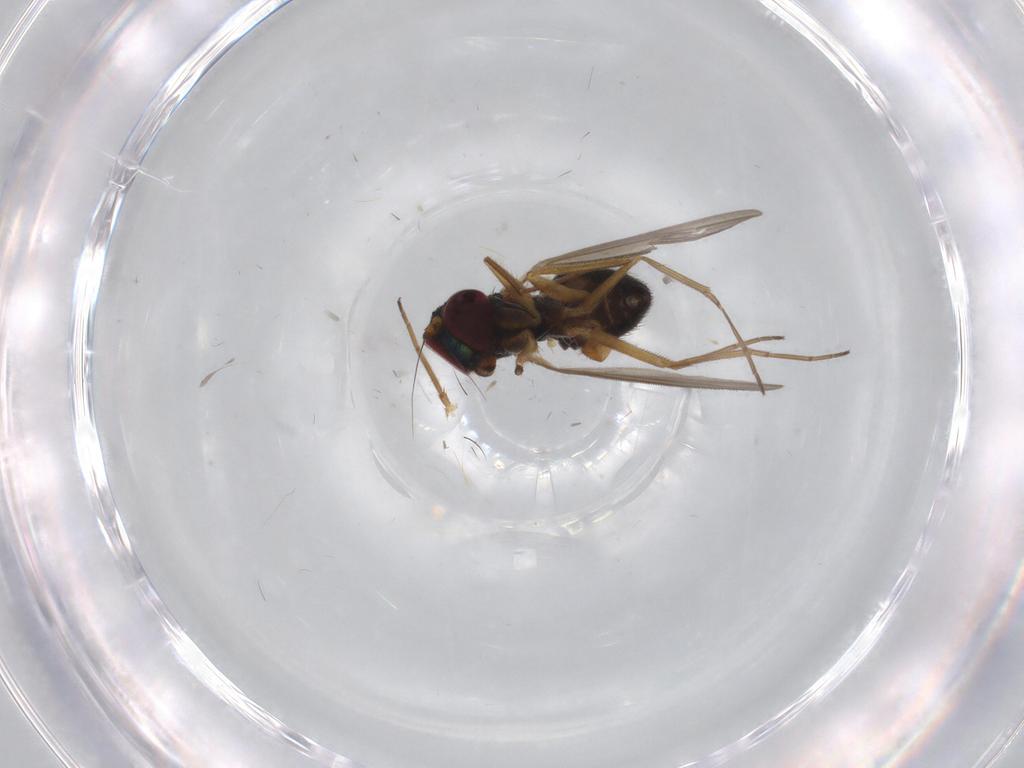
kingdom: Animalia
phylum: Arthropoda
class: Insecta
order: Diptera
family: Dolichopodidae
